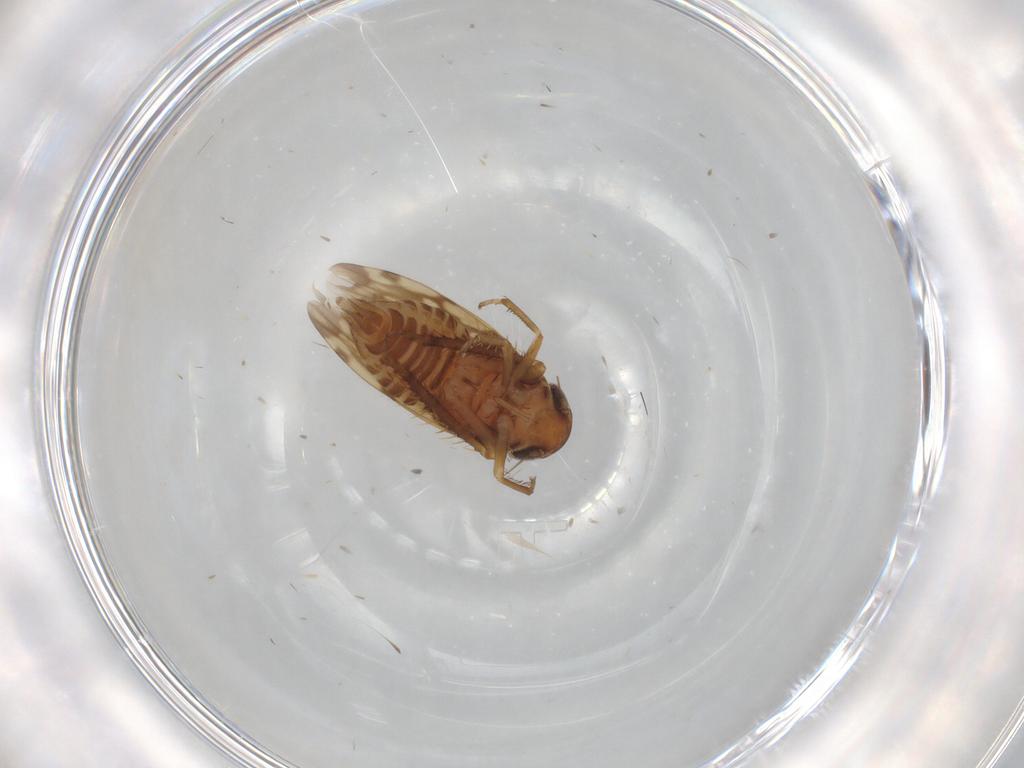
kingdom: Animalia
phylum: Arthropoda
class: Insecta
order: Hemiptera
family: Cicadellidae
